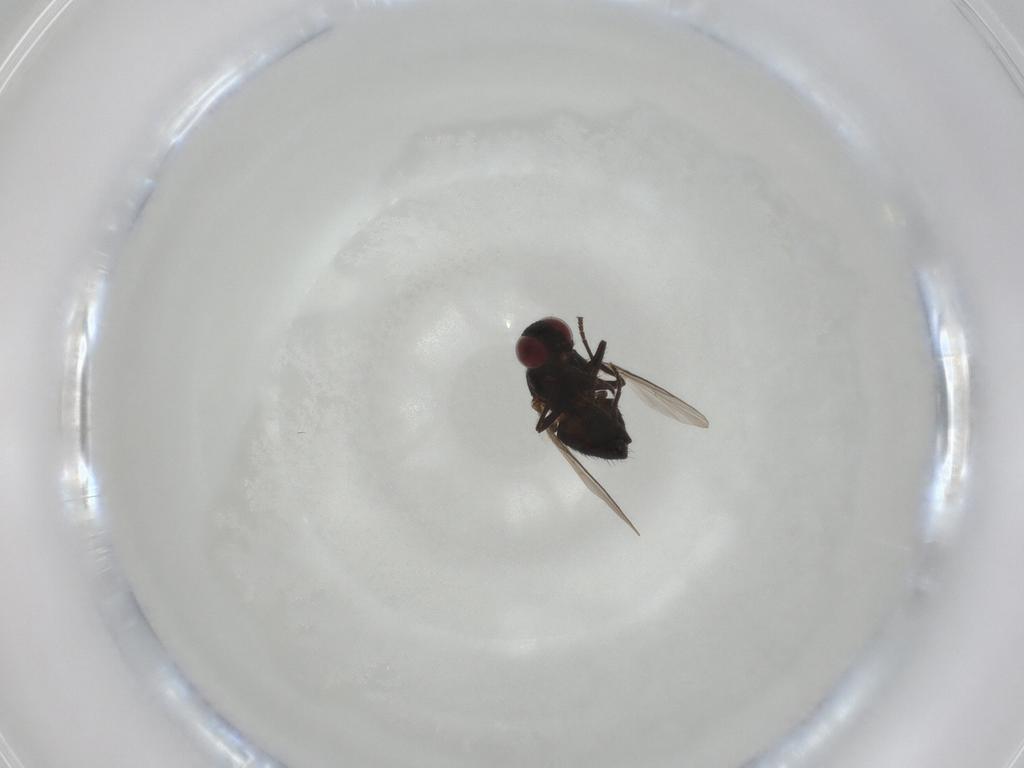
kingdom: Animalia
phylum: Arthropoda
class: Insecta
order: Diptera
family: Agromyzidae
